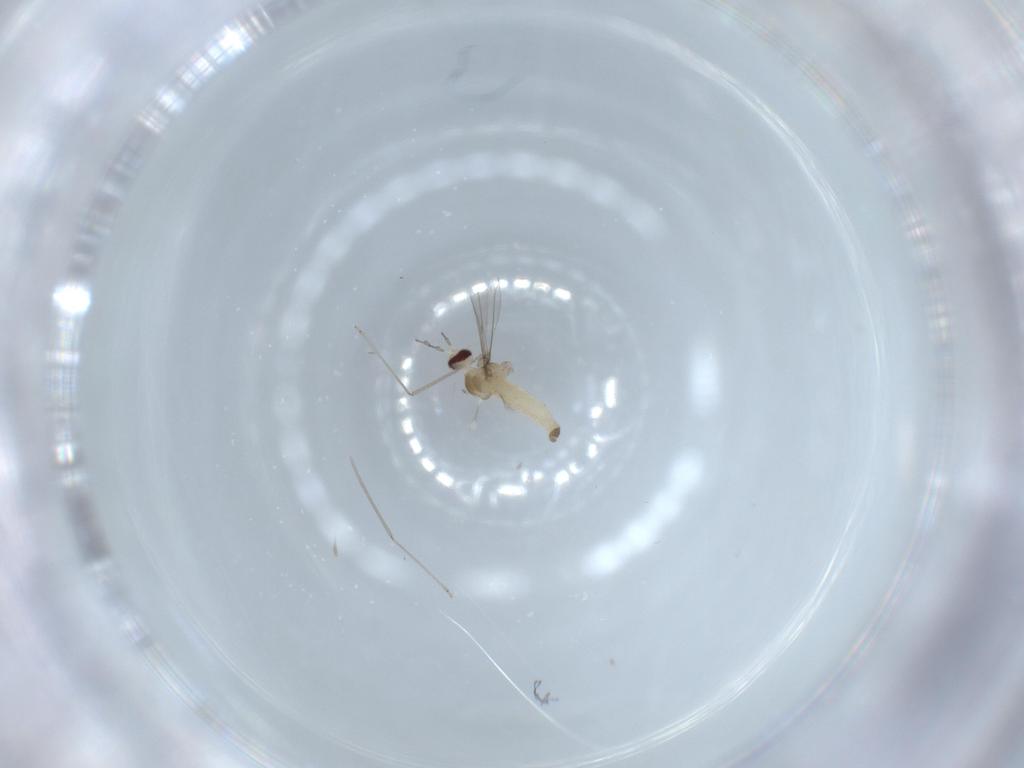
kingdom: Animalia
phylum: Arthropoda
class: Insecta
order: Diptera
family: Cecidomyiidae
